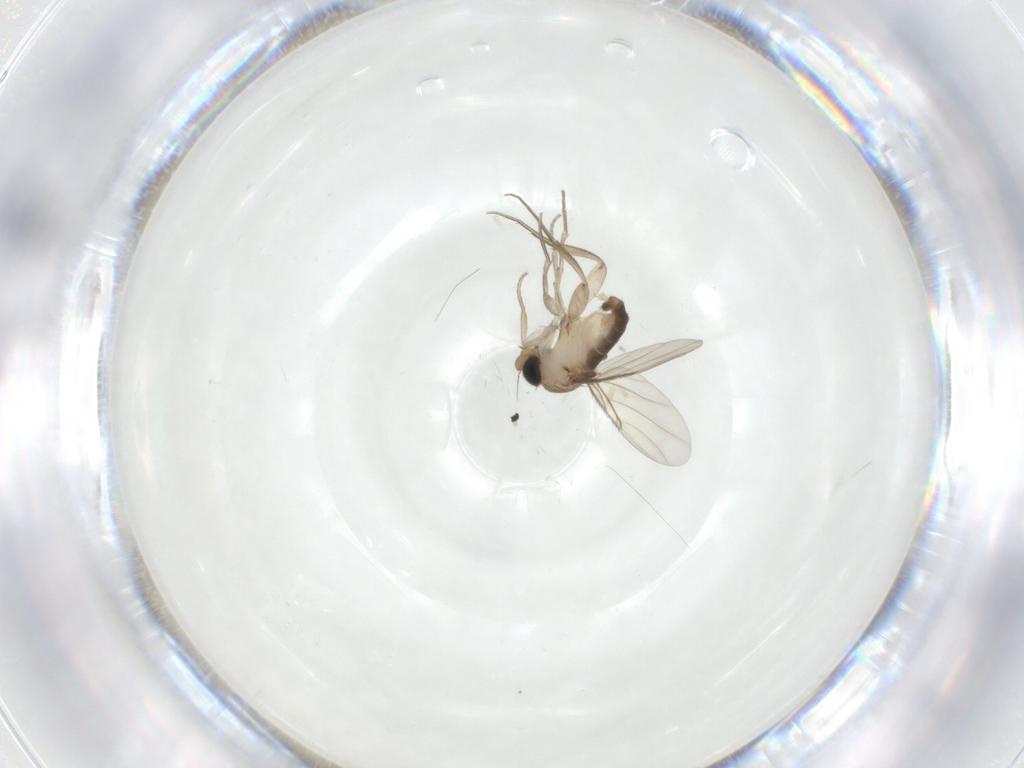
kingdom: Animalia
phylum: Arthropoda
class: Insecta
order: Diptera
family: Phoridae
